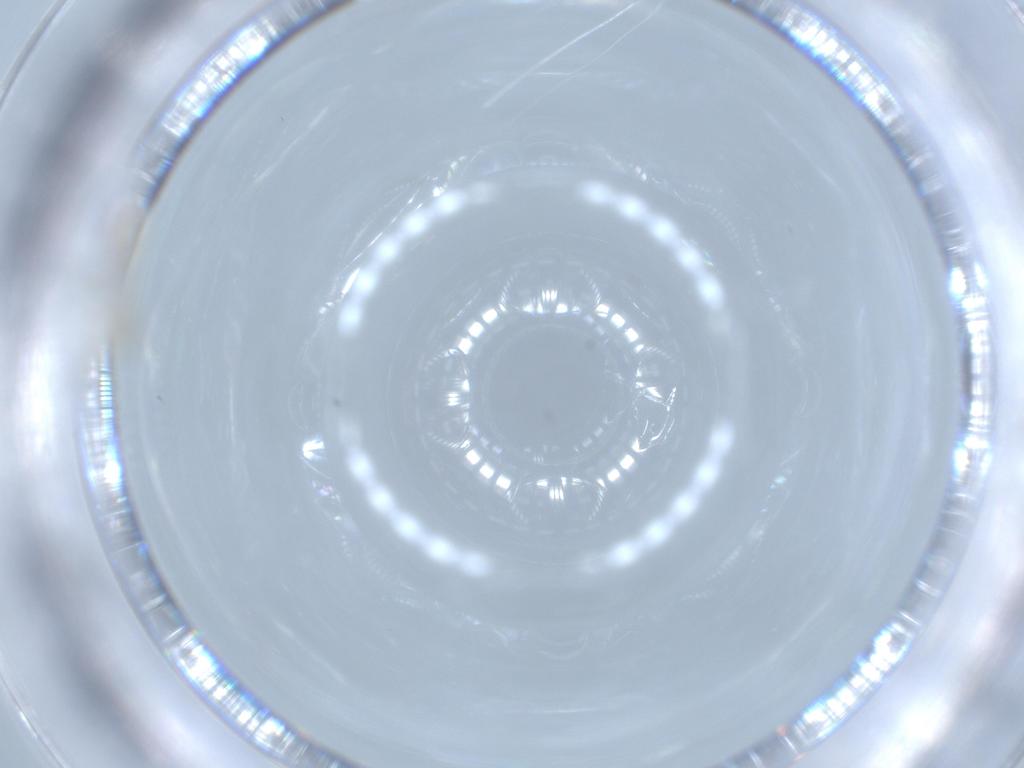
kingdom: Animalia
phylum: Arthropoda
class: Insecta
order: Diptera
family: Chironomidae
